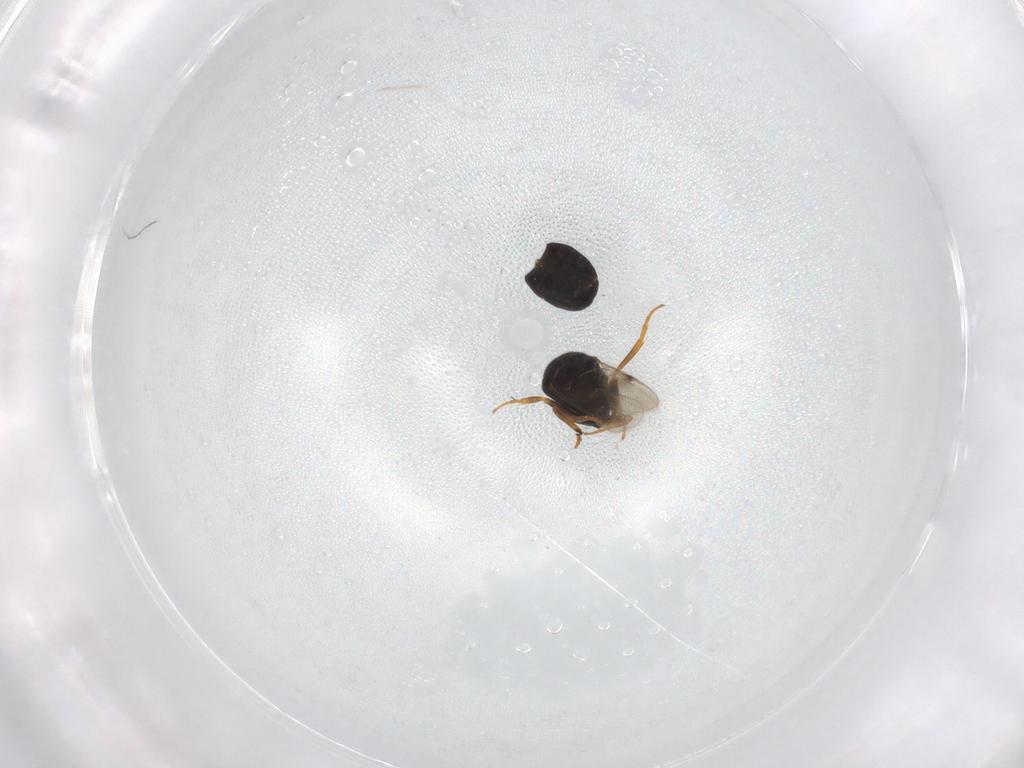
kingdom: Animalia
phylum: Arthropoda
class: Insecta
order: Hymenoptera
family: Scelionidae
